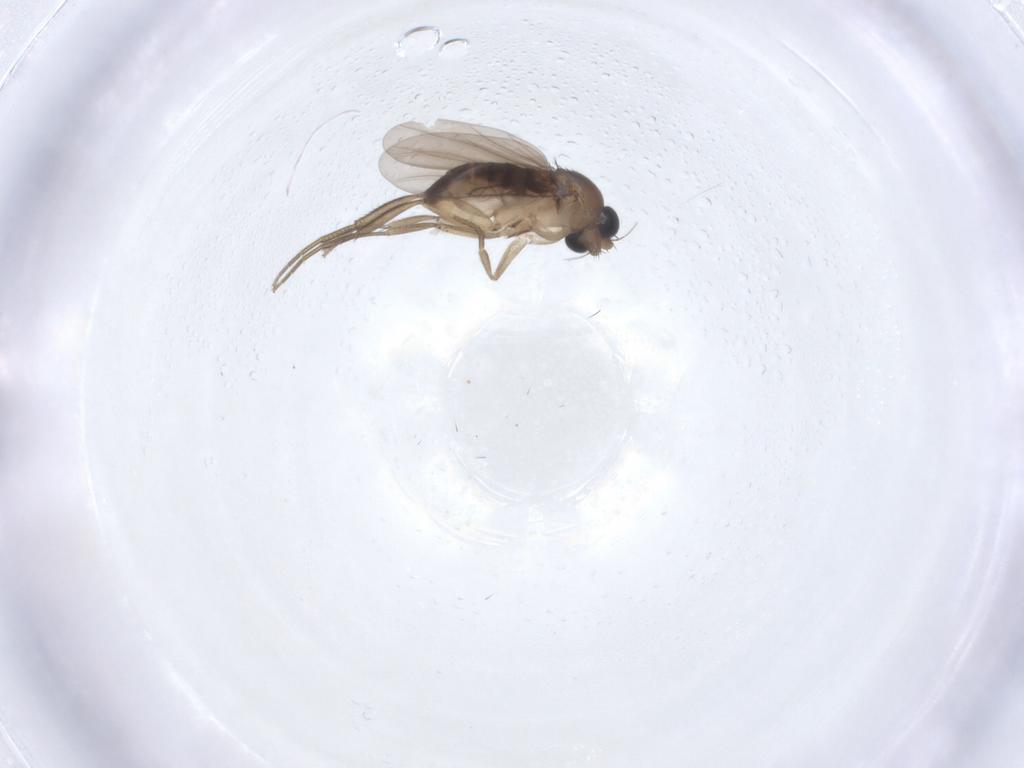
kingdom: Animalia
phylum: Arthropoda
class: Insecta
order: Diptera
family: Phoridae
